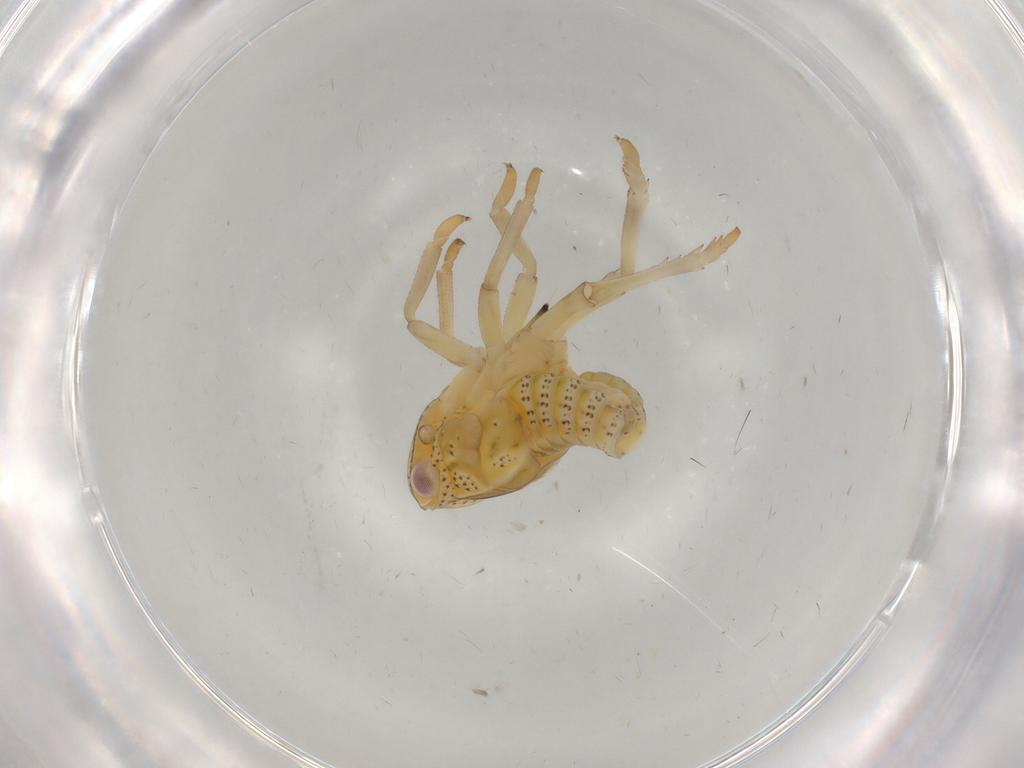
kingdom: Animalia
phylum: Arthropoda
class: Insecta
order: Hemiptera
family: Tropiduchidae
